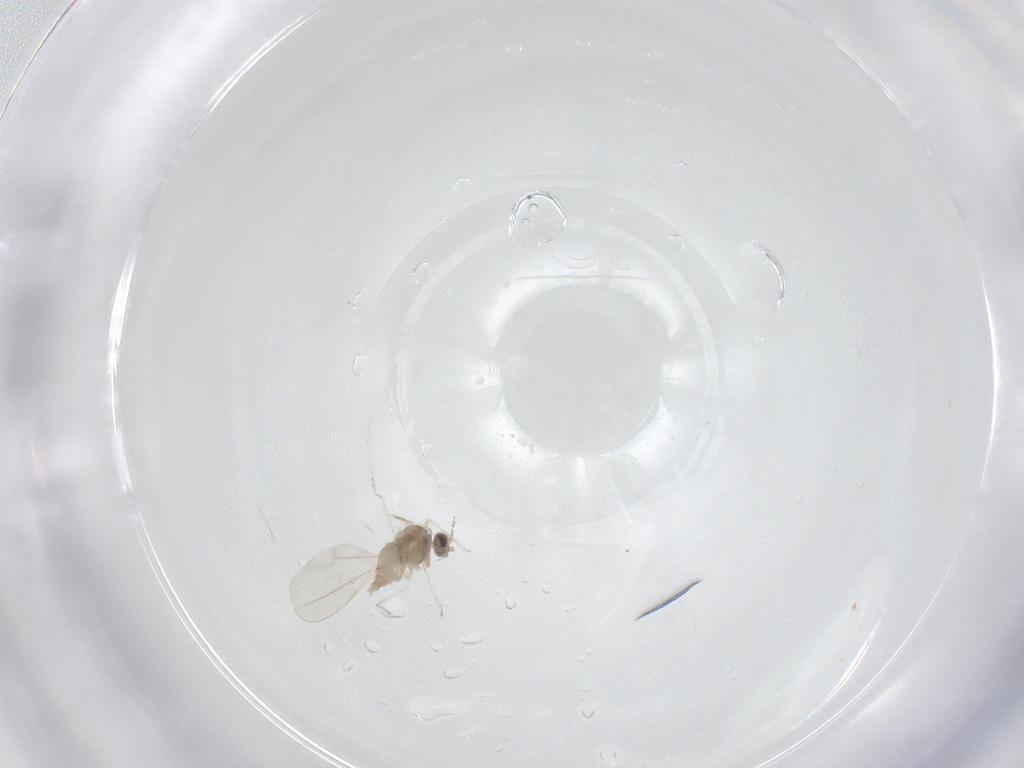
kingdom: Animalia
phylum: Arthropoda
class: Insecta
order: Diptera
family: Cecidomyiidae
